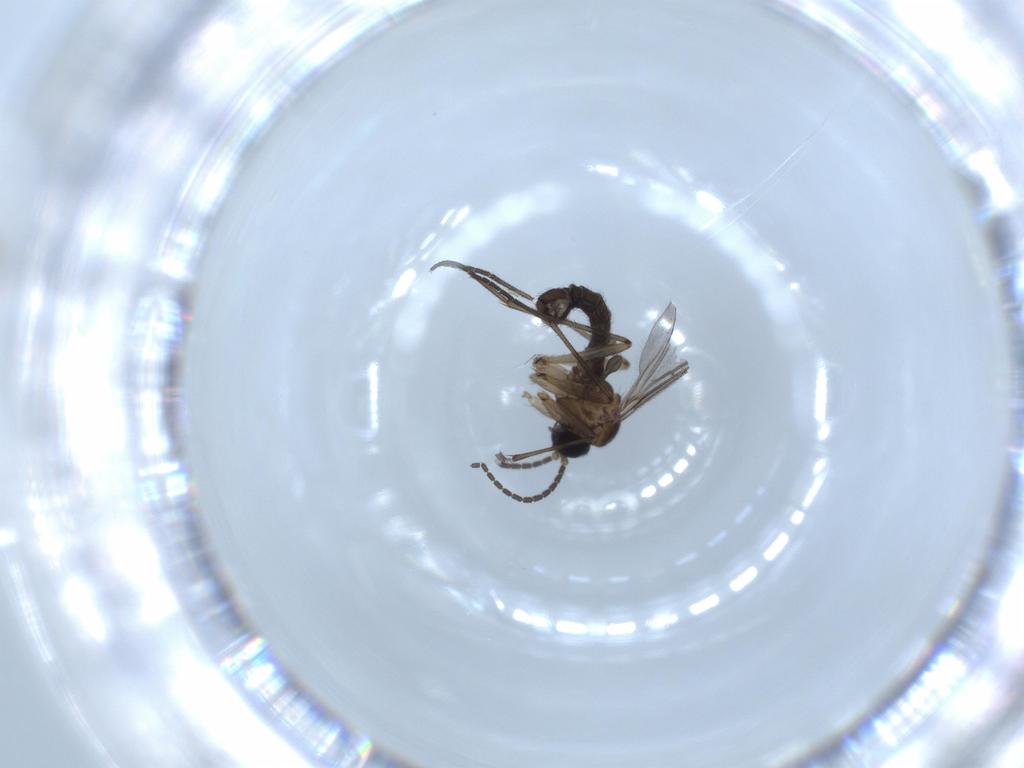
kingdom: Animalia
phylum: Arthropoda
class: Insecta
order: Diptera
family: Sciaridae
